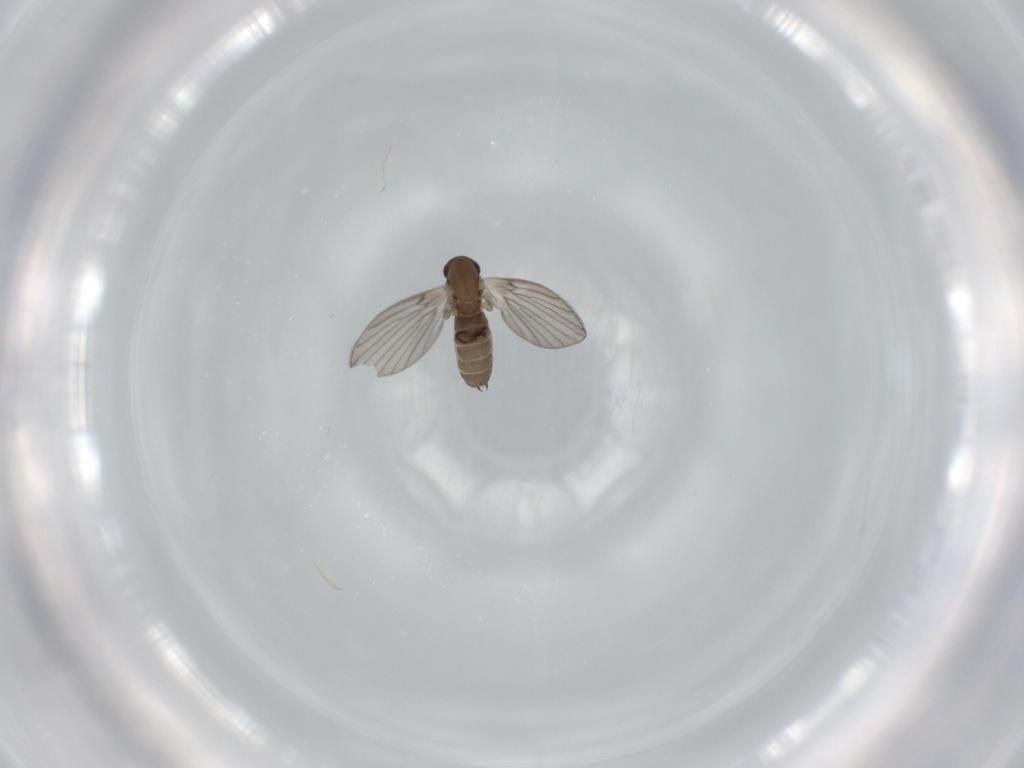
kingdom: Animalia
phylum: Arthropoda
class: Insecta
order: Diptera
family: Psychodidae
